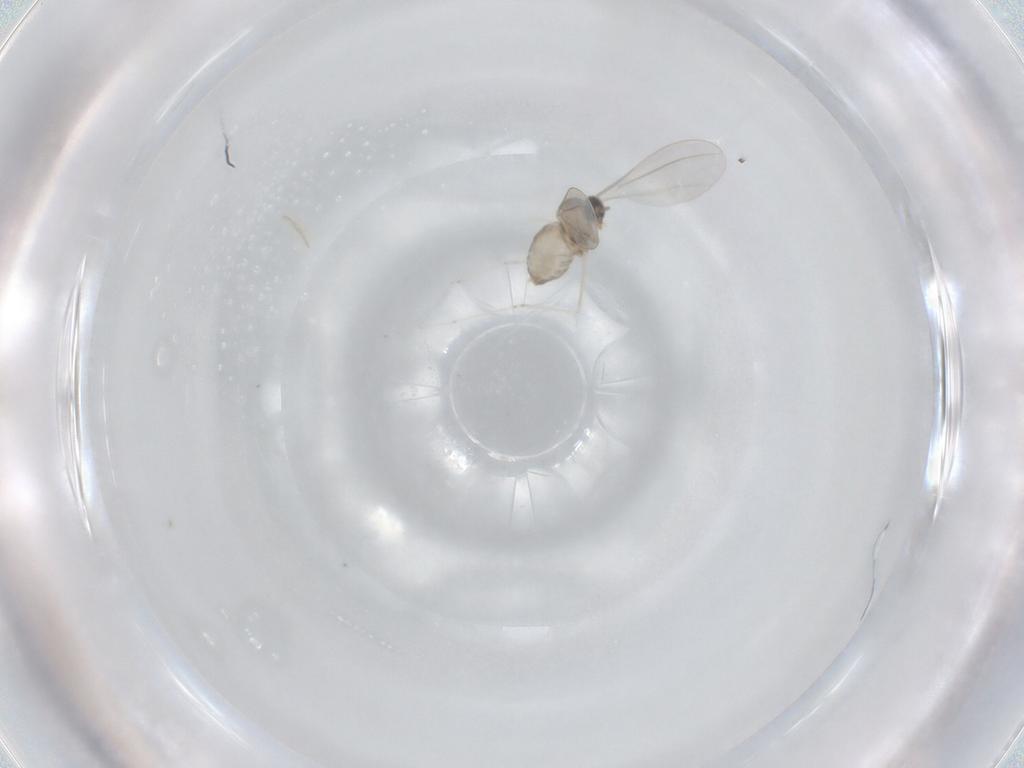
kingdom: Animalia
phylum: Arthropoda
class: Insecta
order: Diptera
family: Cecidomyiidae
